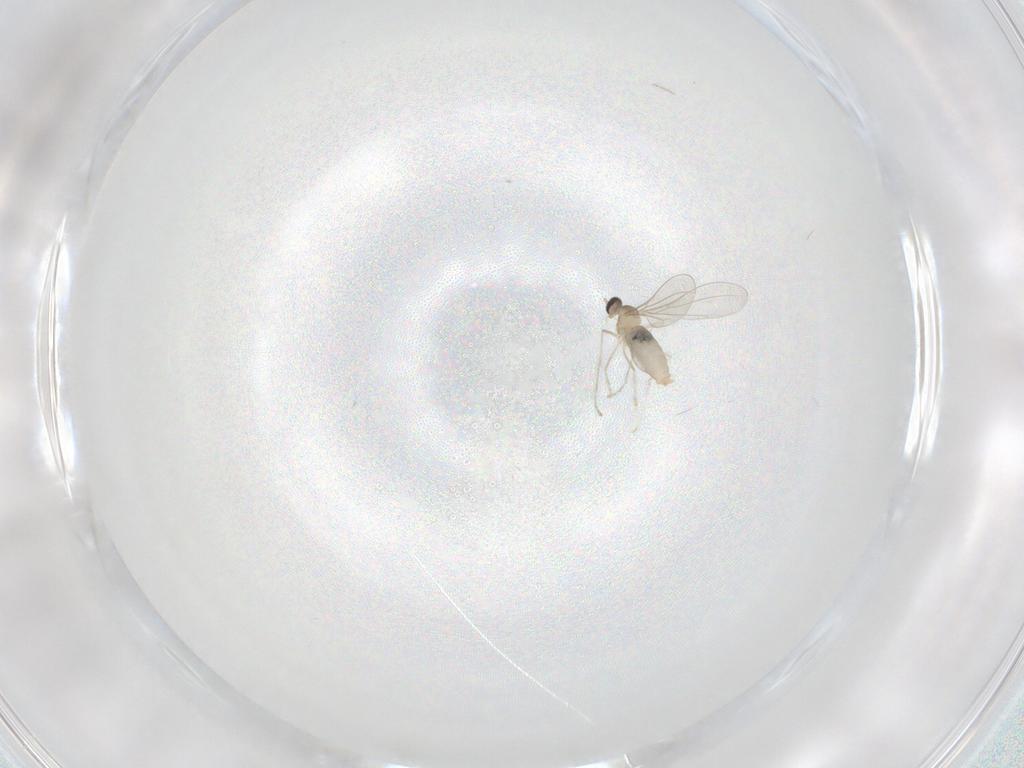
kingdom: Animalia
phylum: Arthropoda
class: Insecta
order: Diptera
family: Cecidomyiidae
